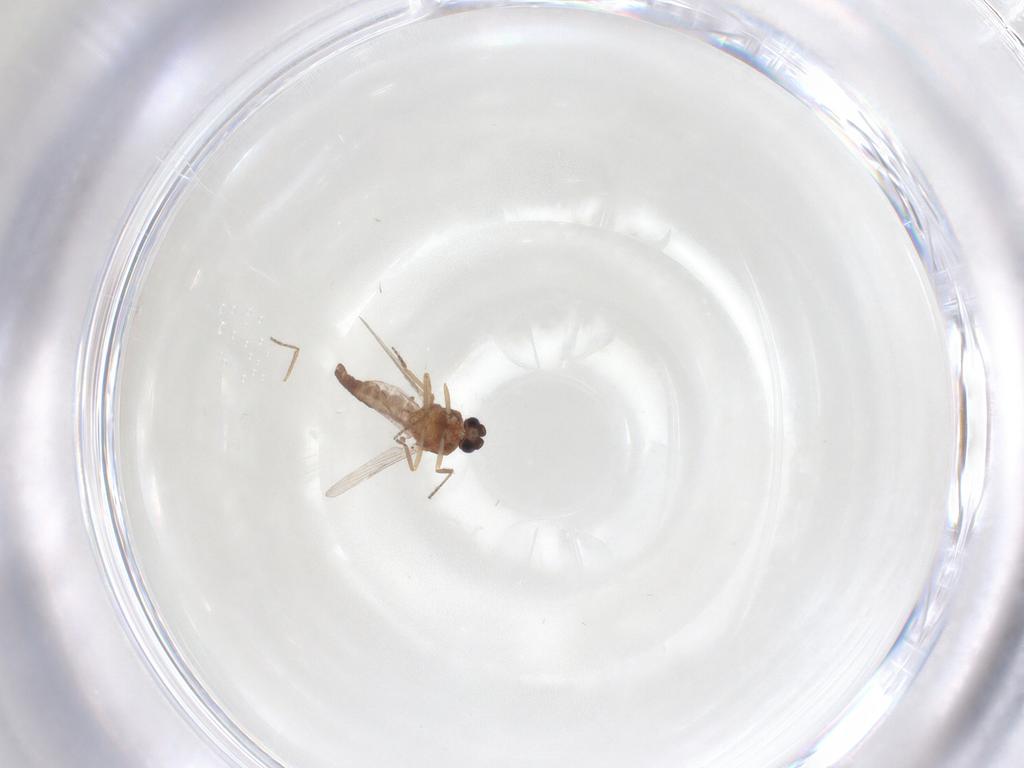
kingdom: Animalia
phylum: Arthropoda
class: Insecta
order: Diptera
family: Ceratopogonidae
